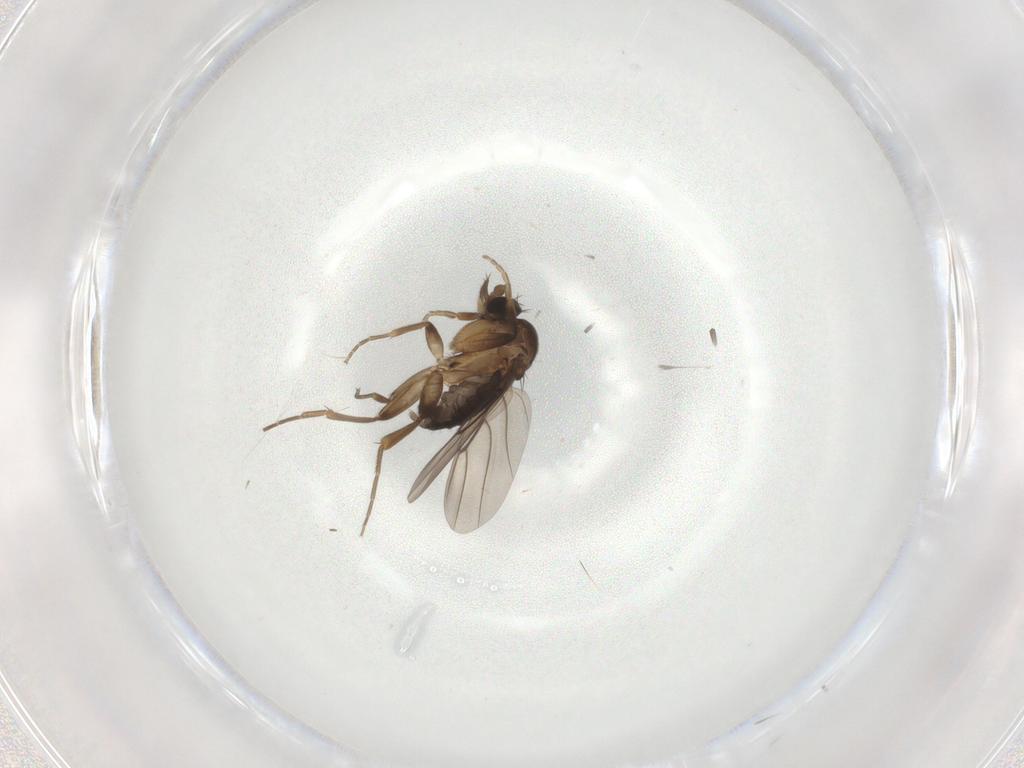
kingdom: Animalia
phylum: Arthropoda
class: Insecta
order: Diptera
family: Phoridae
